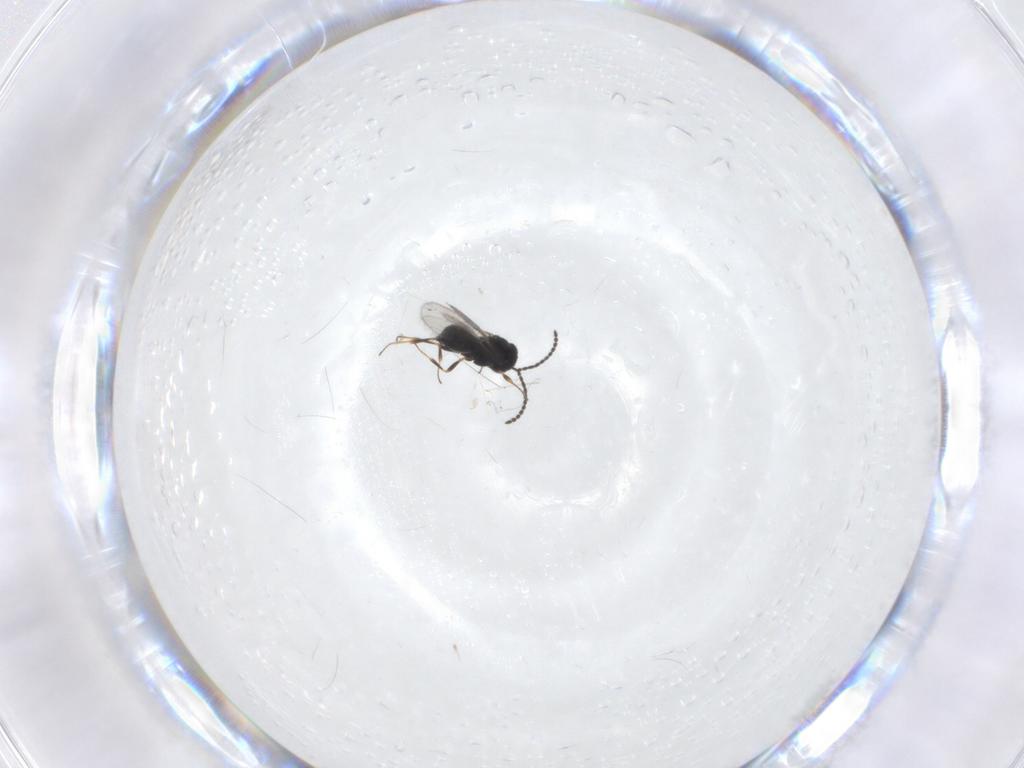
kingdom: Animalia
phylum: Arthropoda
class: Insecta
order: Hymenoptera
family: Scelionidae
